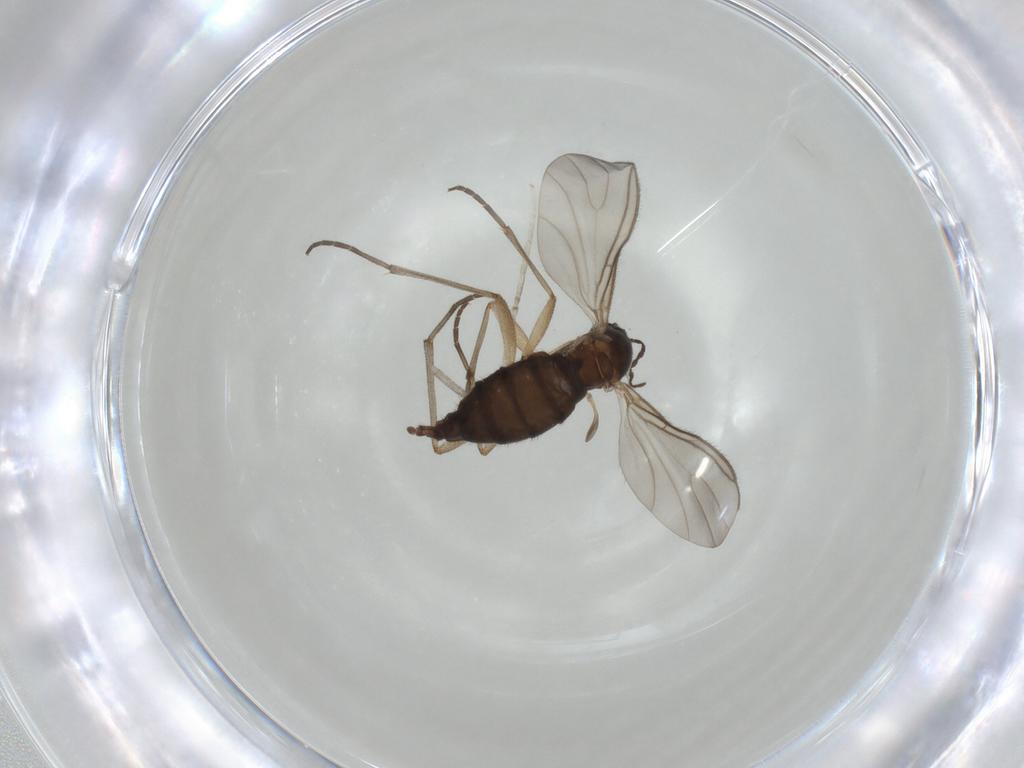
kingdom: Animalia
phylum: Arthropoda
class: Insecta
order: Diptera
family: Sciaridae
